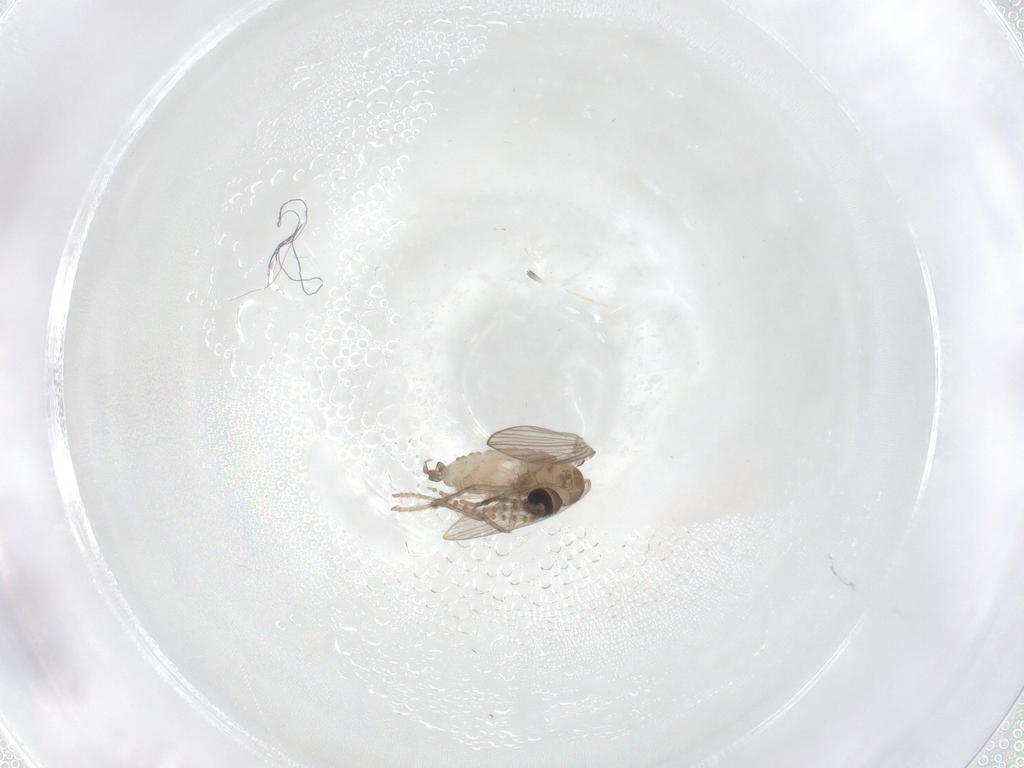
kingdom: Animalia
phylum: Arthropoda
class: Insecta
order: Diptera
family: Psychodidae
